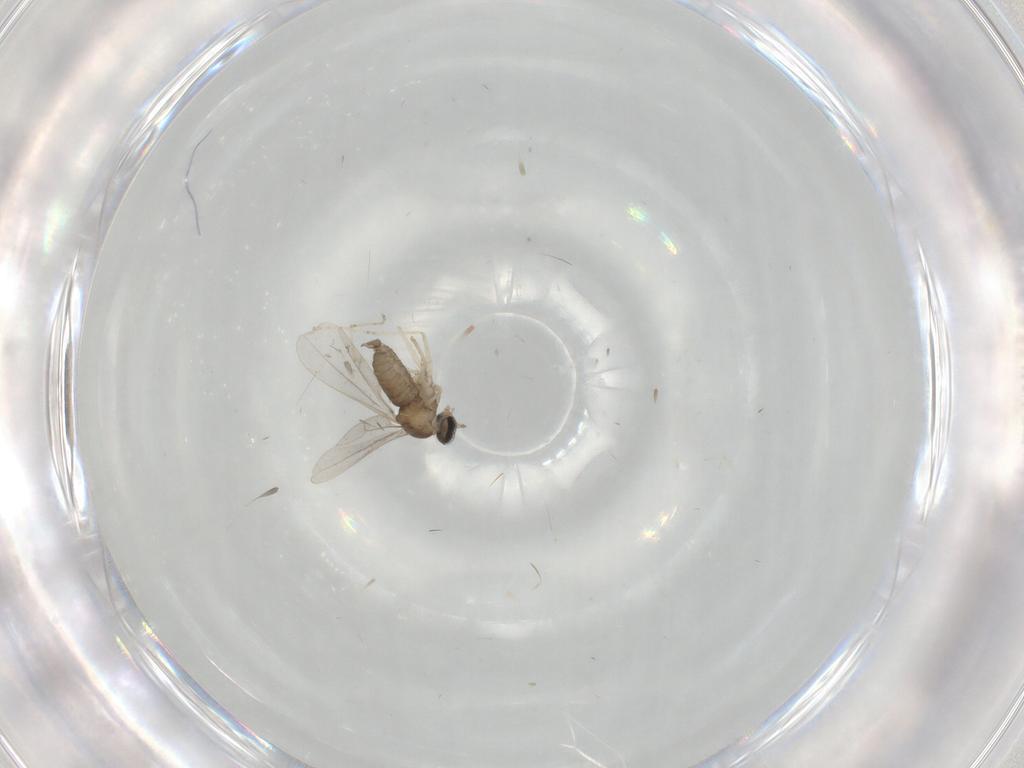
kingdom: Animalia
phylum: Arthropoda
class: Insecta
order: Diptera
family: Cecidomyiidae
